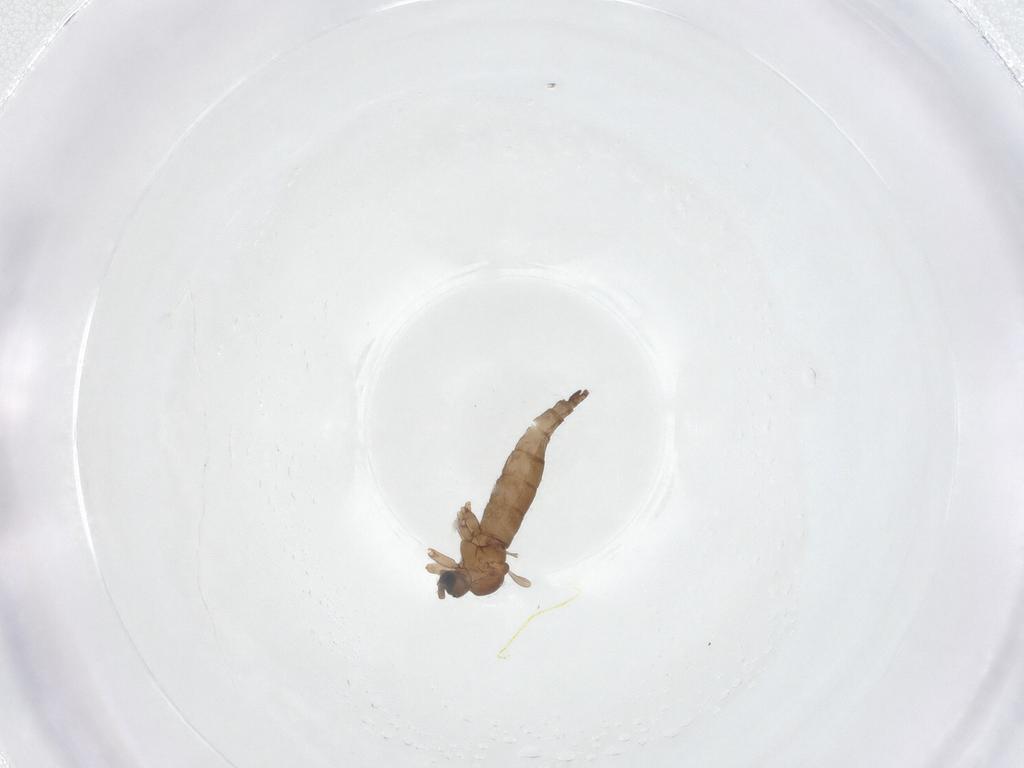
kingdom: Animalia
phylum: Arthropoda
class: Insecta
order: Diptera
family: Sciaridae
